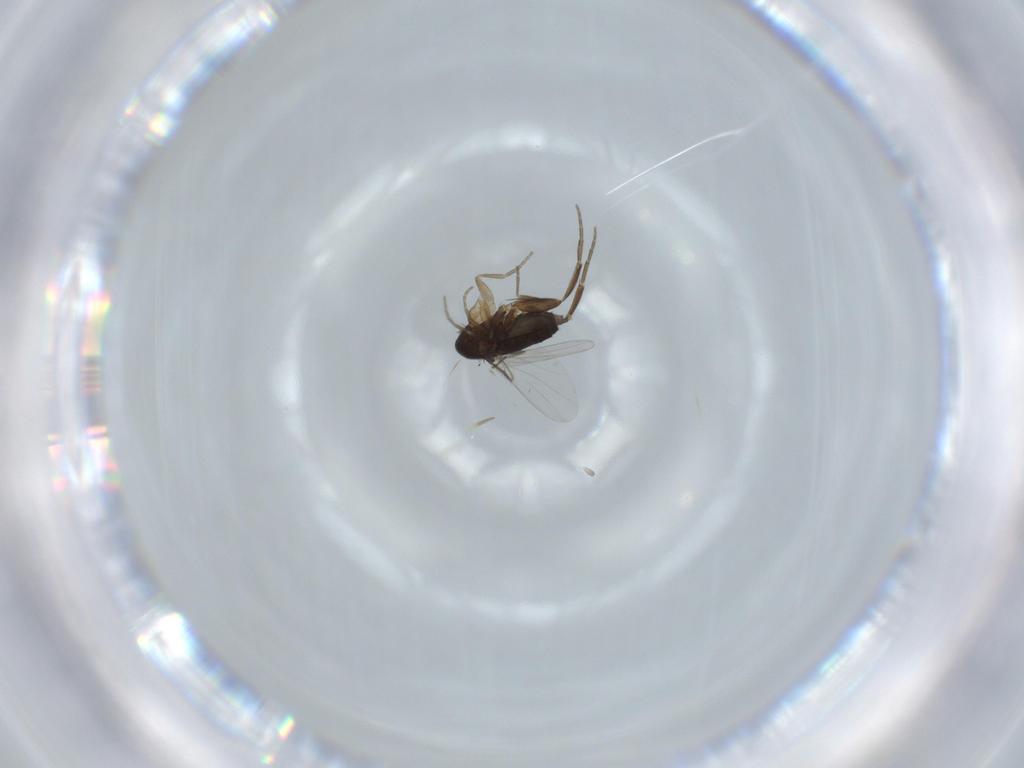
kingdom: Animalia
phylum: Arthropoda
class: Insecta
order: Diptera
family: Phoridae
